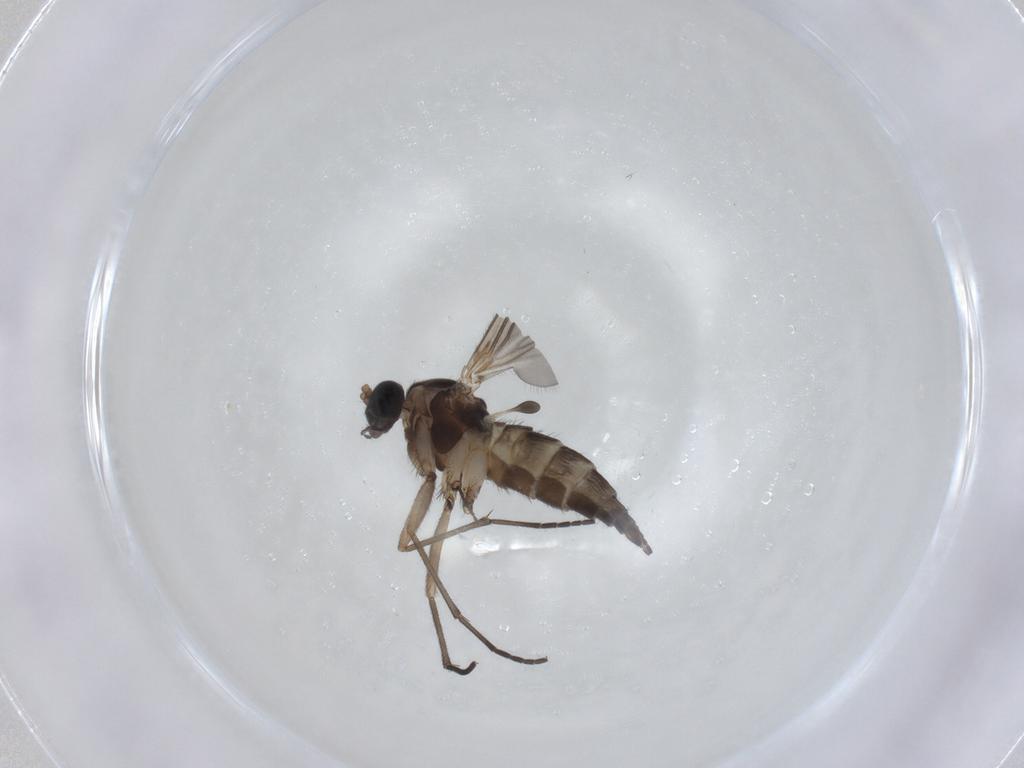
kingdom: Animalia
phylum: Arthropoda
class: Insecta
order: Diptera
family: Sciaridae
